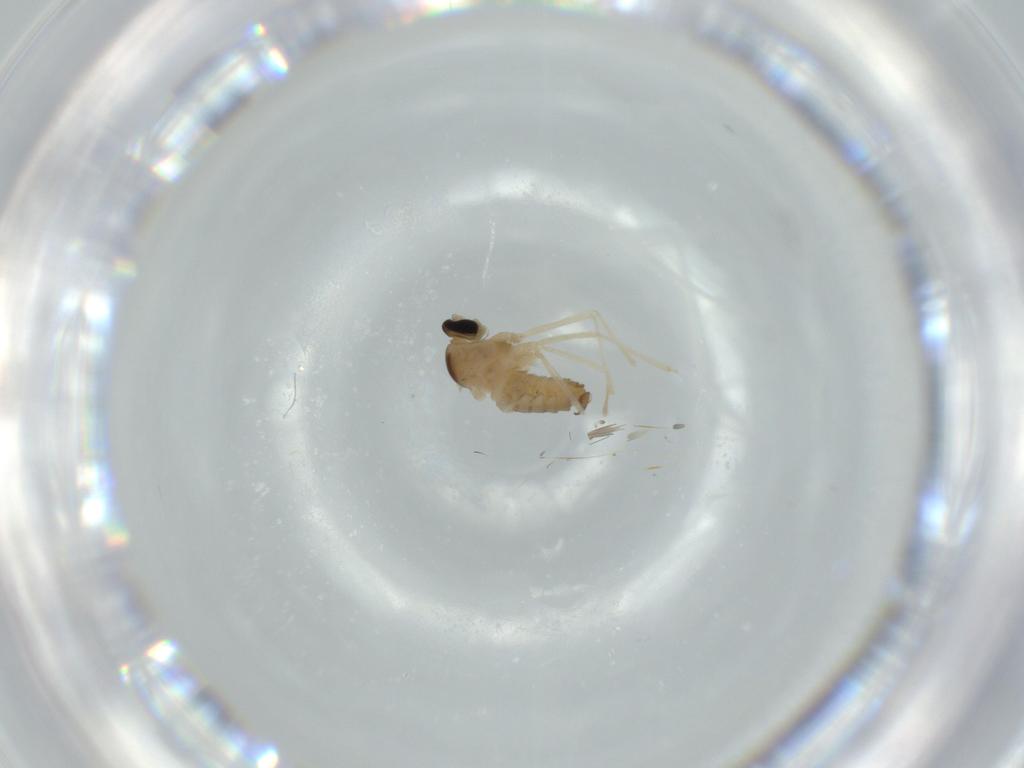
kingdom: Animalia
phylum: Arthropoda
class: Insecta
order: Diptera
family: Cecidomyiidae
